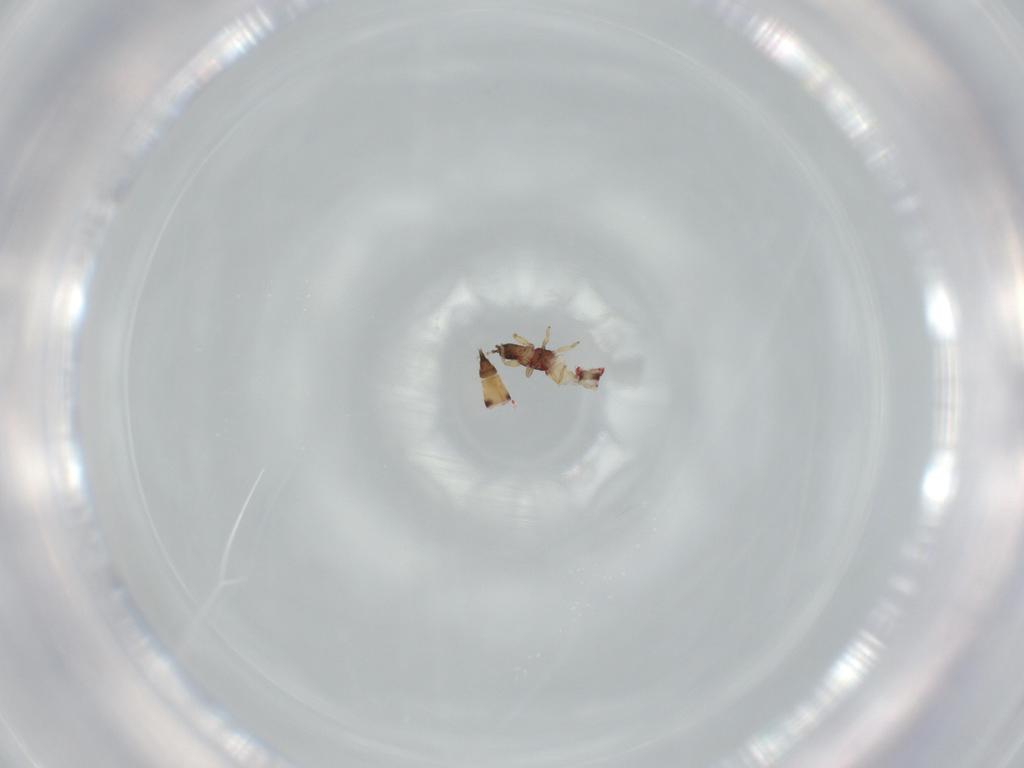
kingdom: Animalia
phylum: Arthropoda
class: Insecta
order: Thysanoptera
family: Phlaeothripidae
